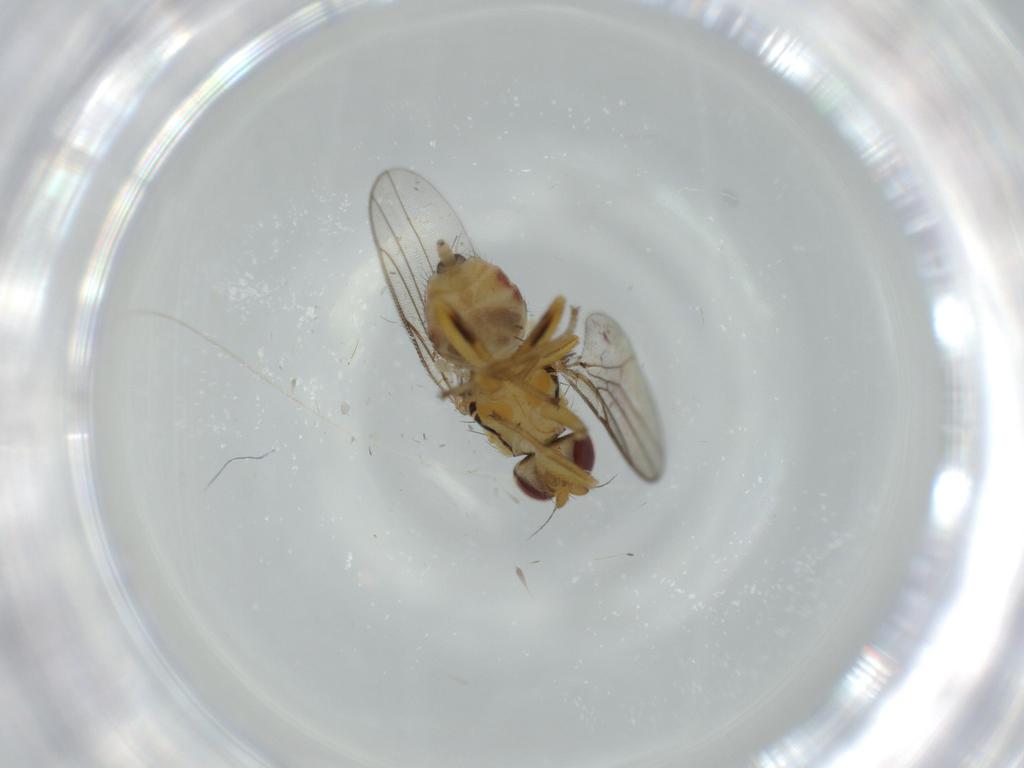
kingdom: Animalia
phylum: Arthropoda
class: Insecta
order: Diptera
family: Chloropidae
